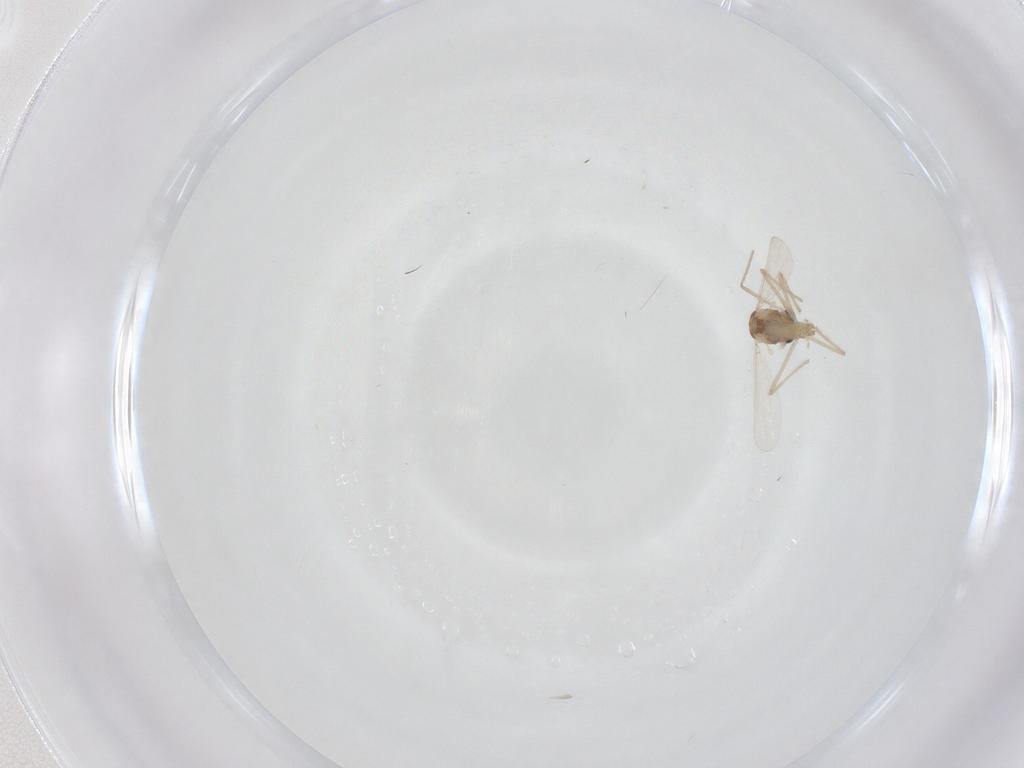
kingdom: Animalia
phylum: Arthropoda
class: Insecta
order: Diptera
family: Chironomidae
